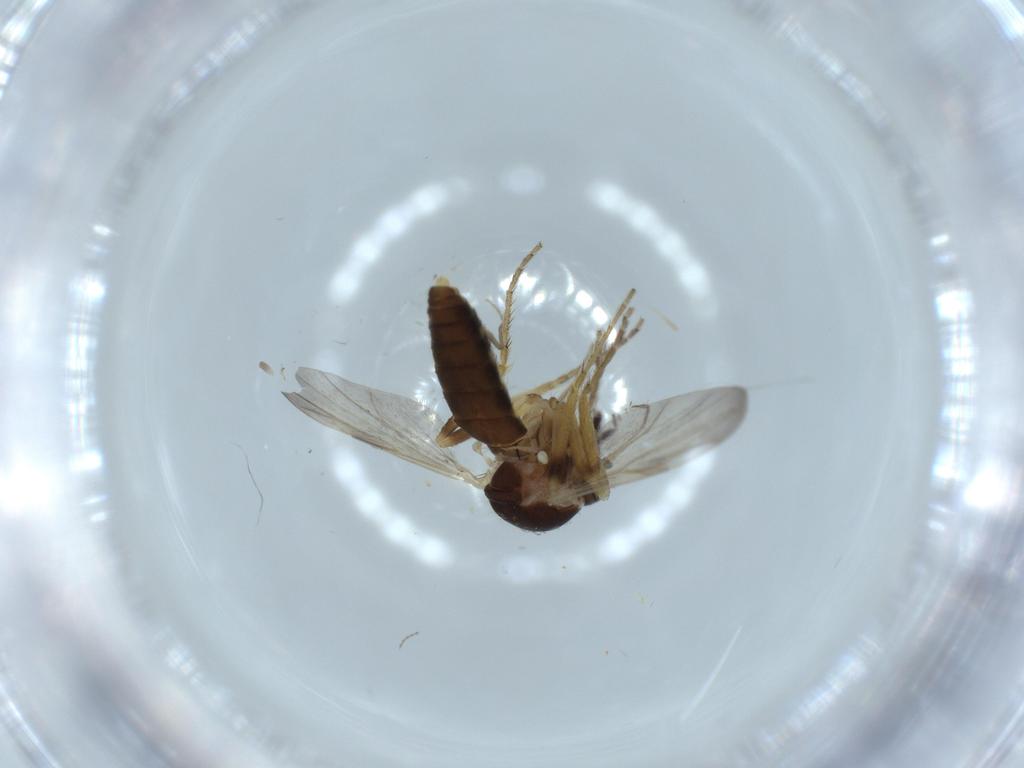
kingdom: Animalia
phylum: Arthropoda
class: Insecta
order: Diptera
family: Ceratopogonidae
